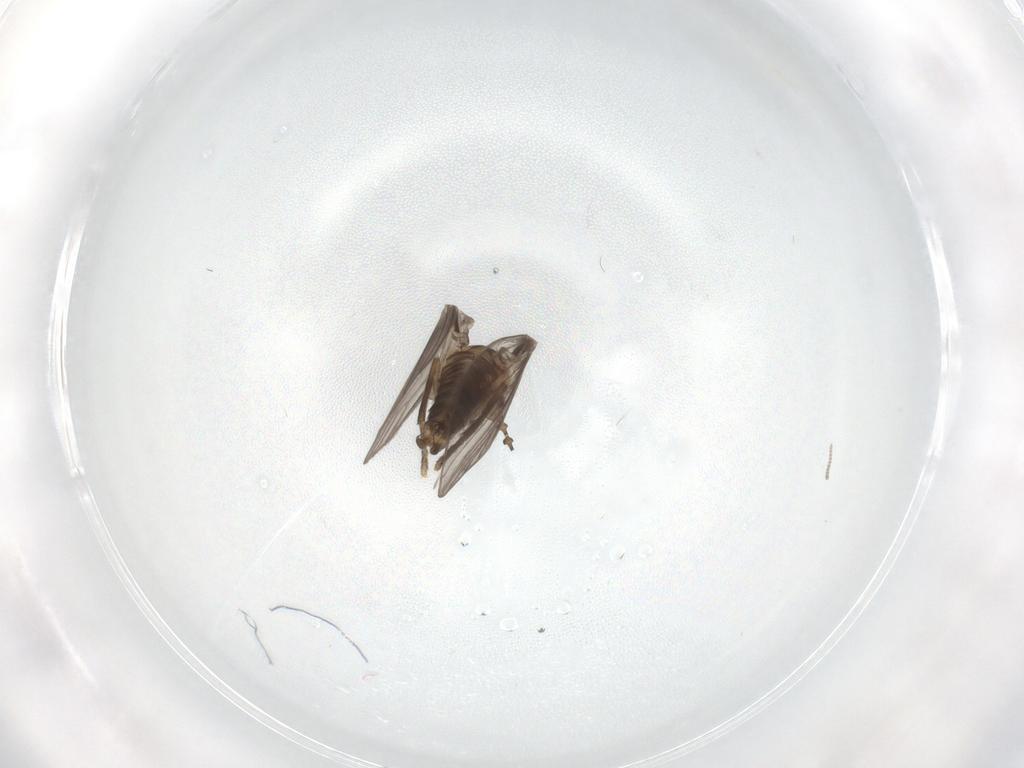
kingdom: Animalia
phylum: Arthropoda
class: Insecta
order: Diptera
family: Psychodidae
